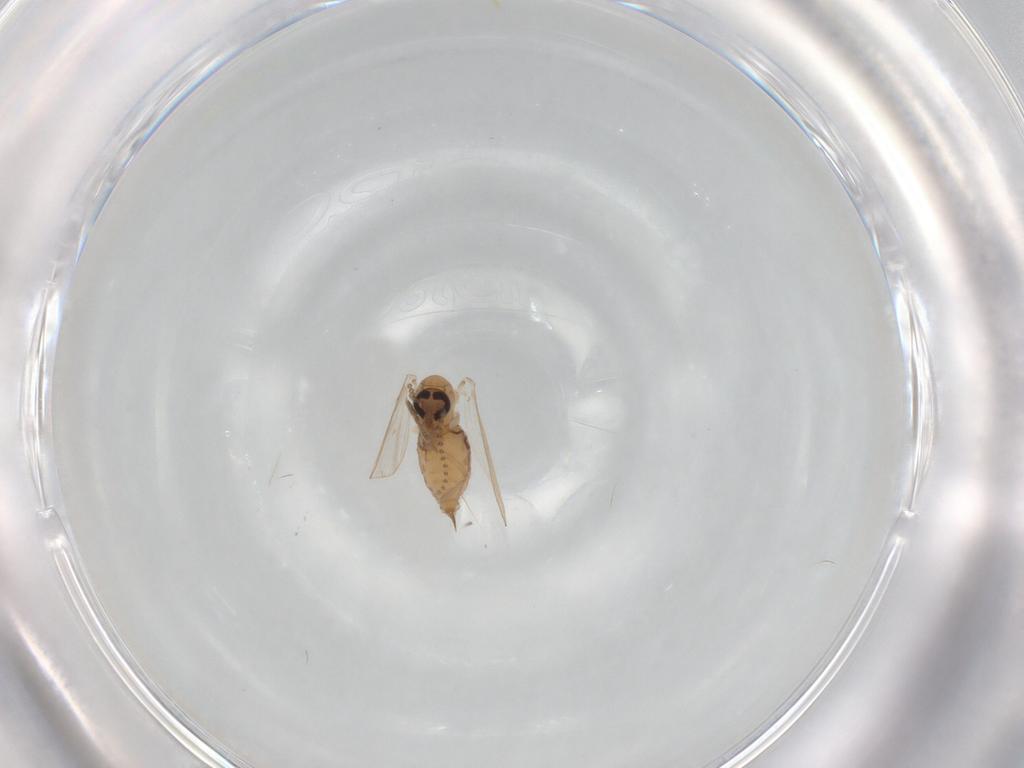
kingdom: Animalia
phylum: Arthropoda
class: Insecta
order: Diptera
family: Psychodidae
